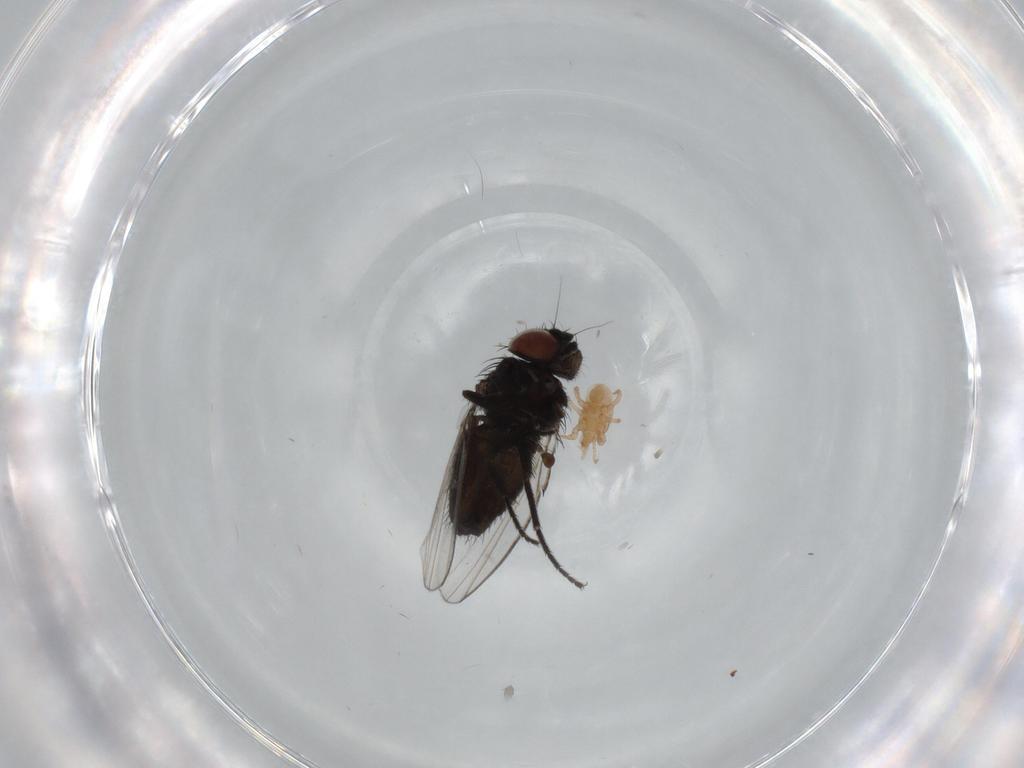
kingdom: Animalia
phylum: Arthropoda
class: Insecta
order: Diptera
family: Milichiidae
